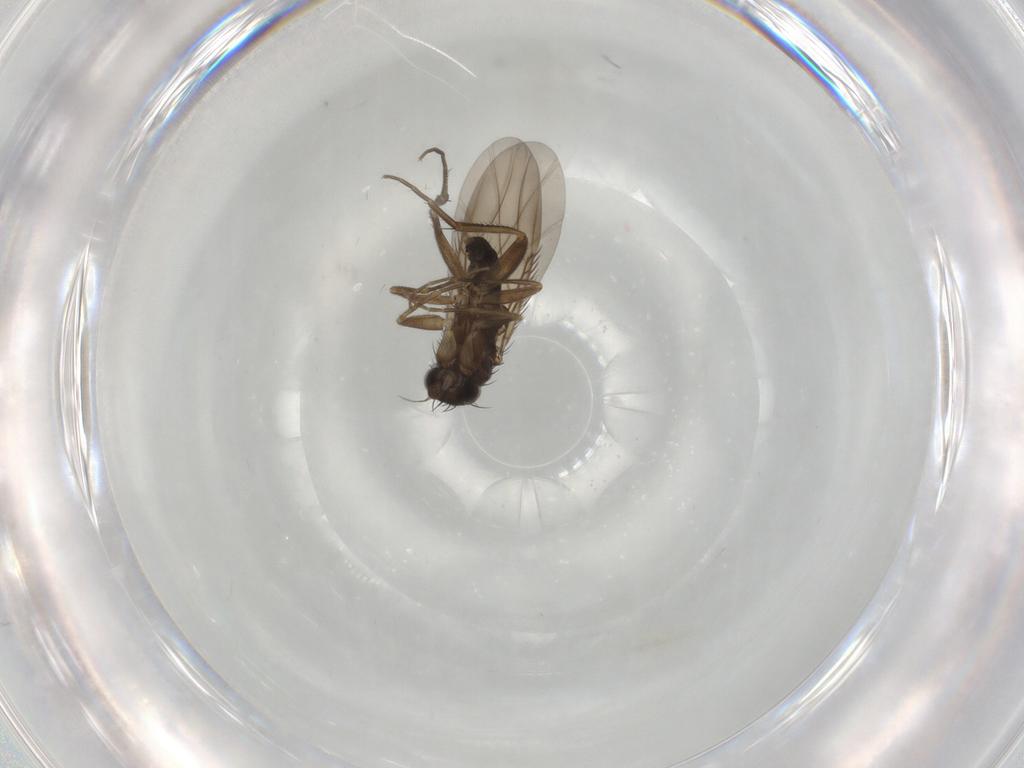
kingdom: Animalia
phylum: Arthropoda
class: Insecta
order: Diptera
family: Phoridae
